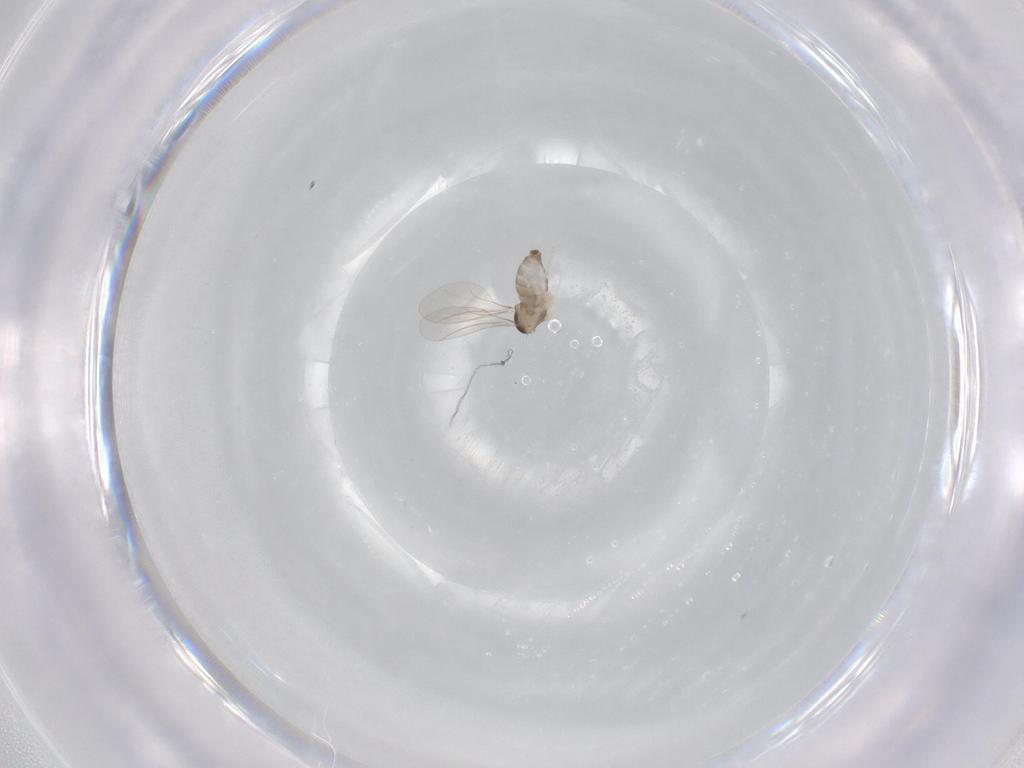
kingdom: Animalia
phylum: Arthropoda
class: Insecta
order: Diptera
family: Cecidomyiidae
